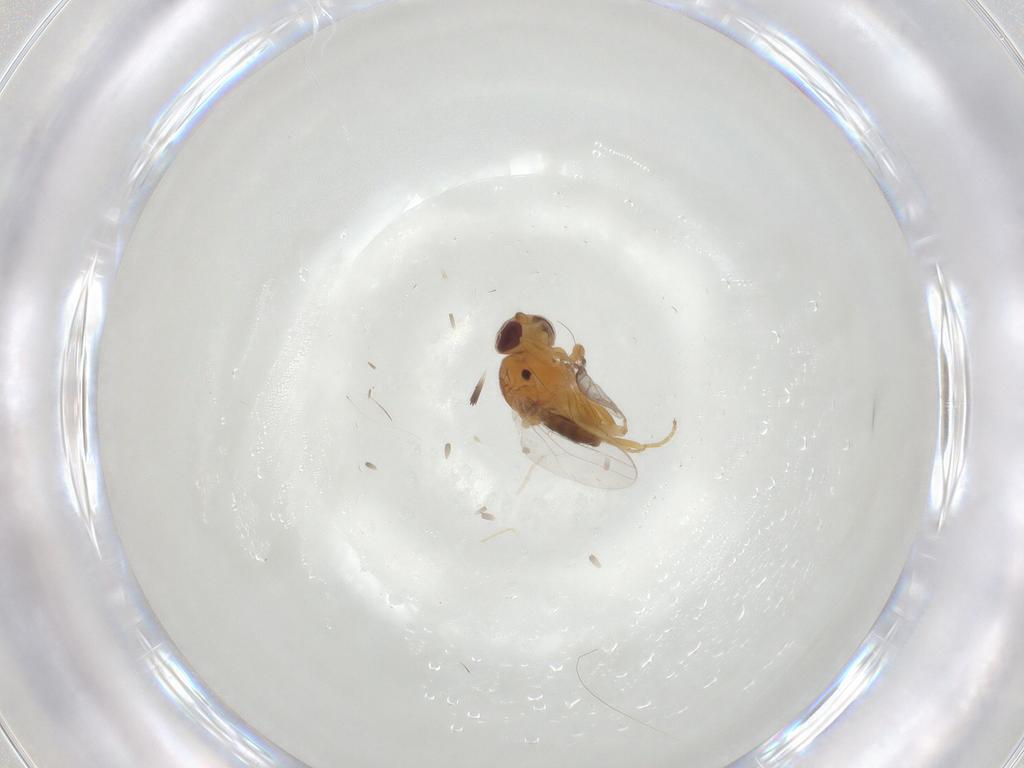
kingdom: Animalia
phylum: Arthropoda
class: Insecta
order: Diptera
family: Chloropidae
